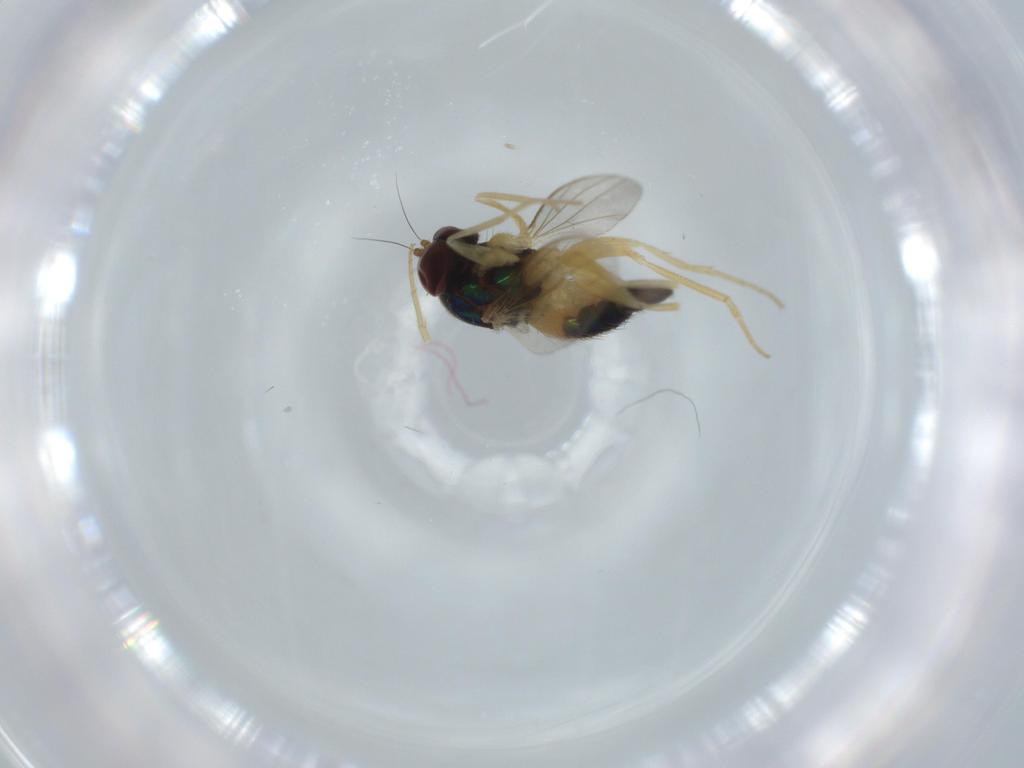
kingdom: Animalia
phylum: Arthropoda
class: Insecta
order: Diptera
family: Dolichopodidae
